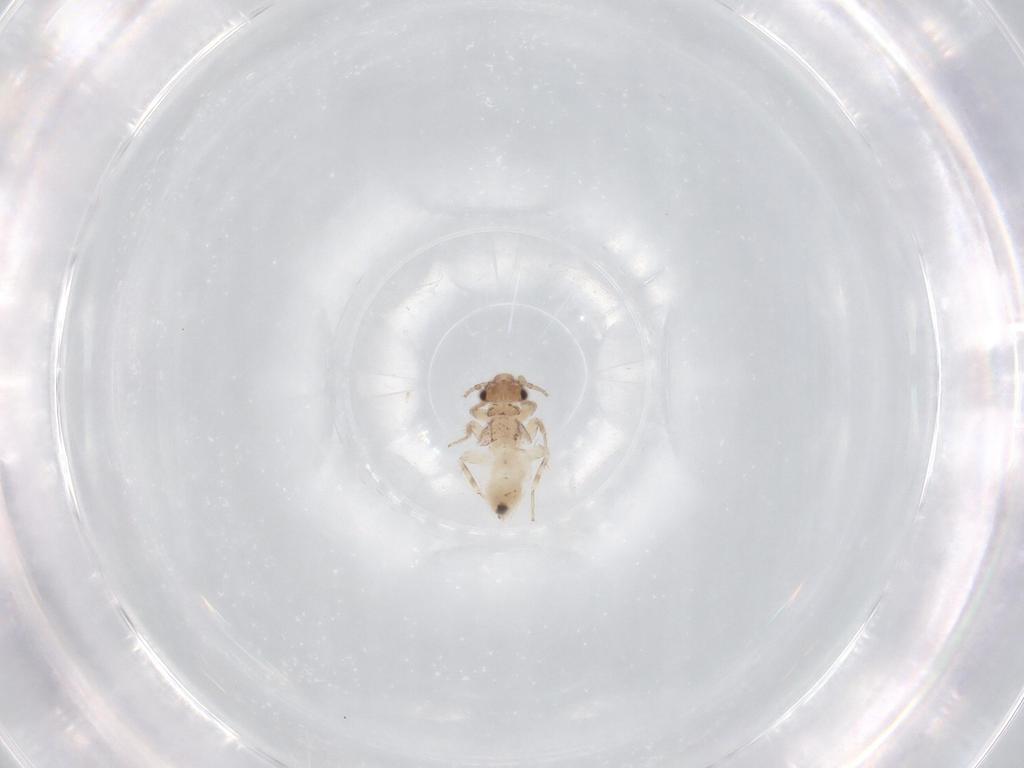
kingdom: Animalia
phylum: Arthropoda
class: Insecta
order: Psocodea
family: Lepidopsocidae
